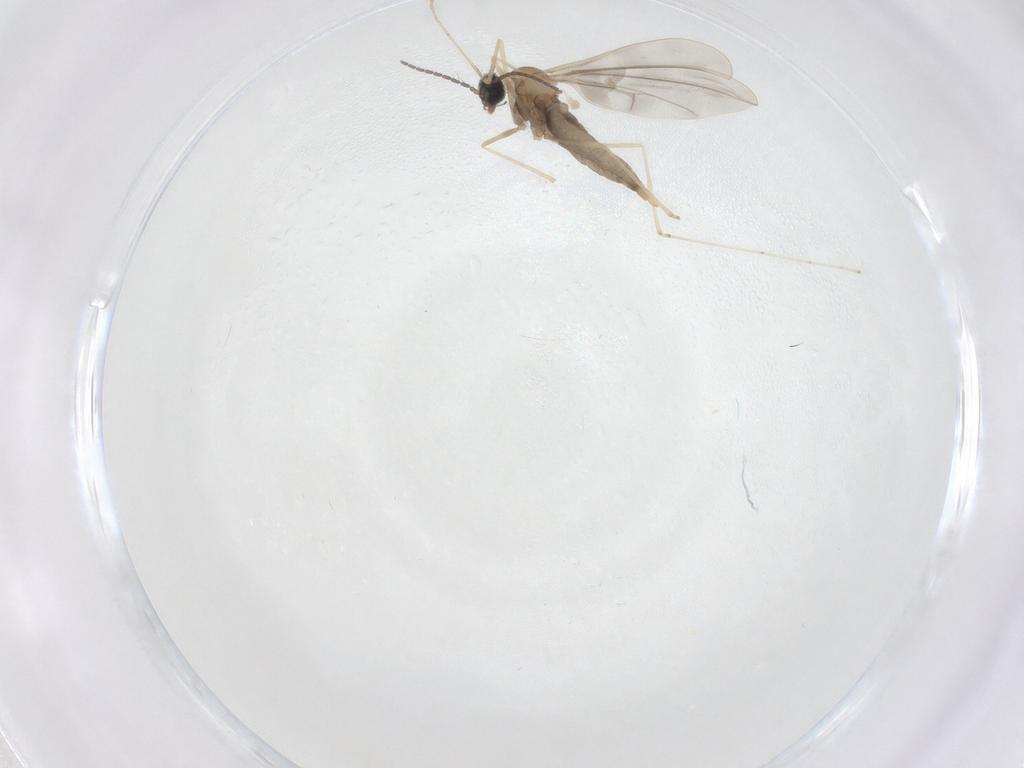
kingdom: Animalia
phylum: Arthropoda
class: Insecta
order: Diptera
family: Cecidomyiidae
